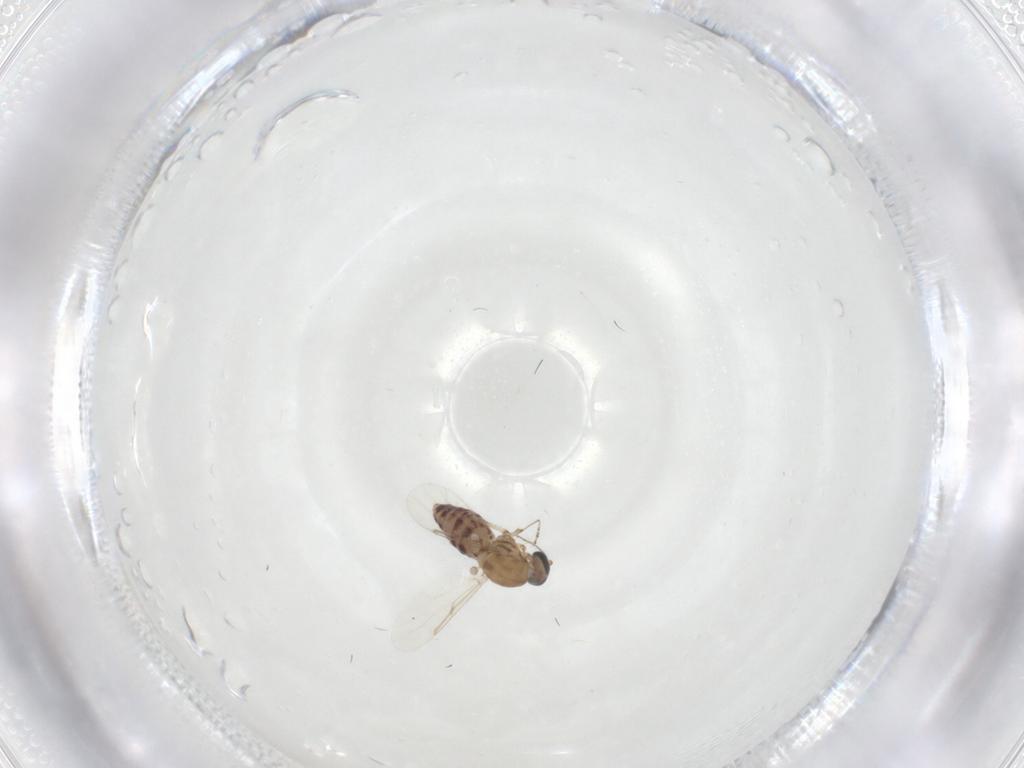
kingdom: Animalia
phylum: Arthropoda
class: Insecta
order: Diptera
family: Ceratopogonidae
